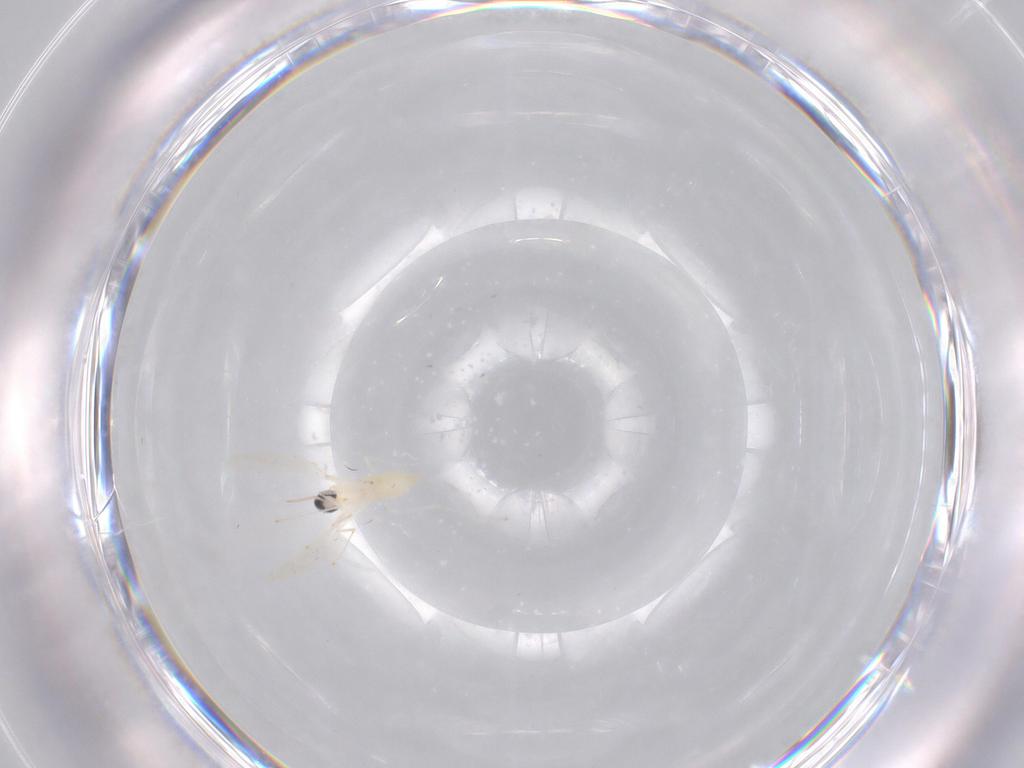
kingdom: Animalia
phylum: Arthropoda
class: Insecta
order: Diptera
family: Cecidomyiidae
